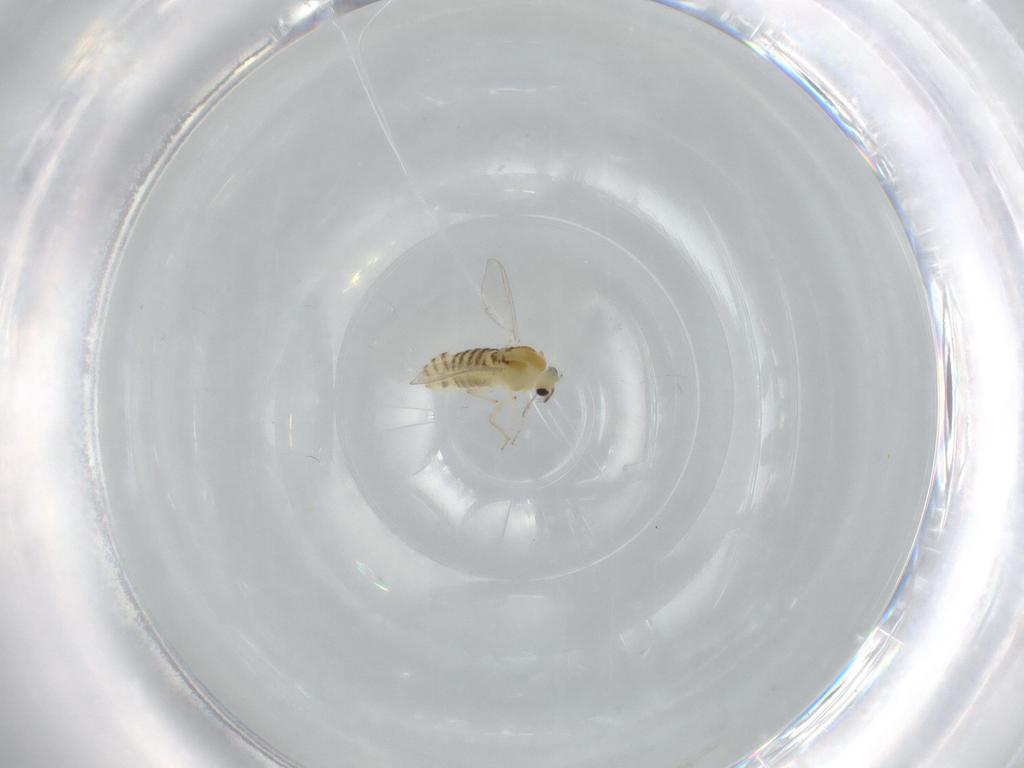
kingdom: Animalia
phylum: Arthropoda
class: Insecta
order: Diptera
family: Chironomidae
